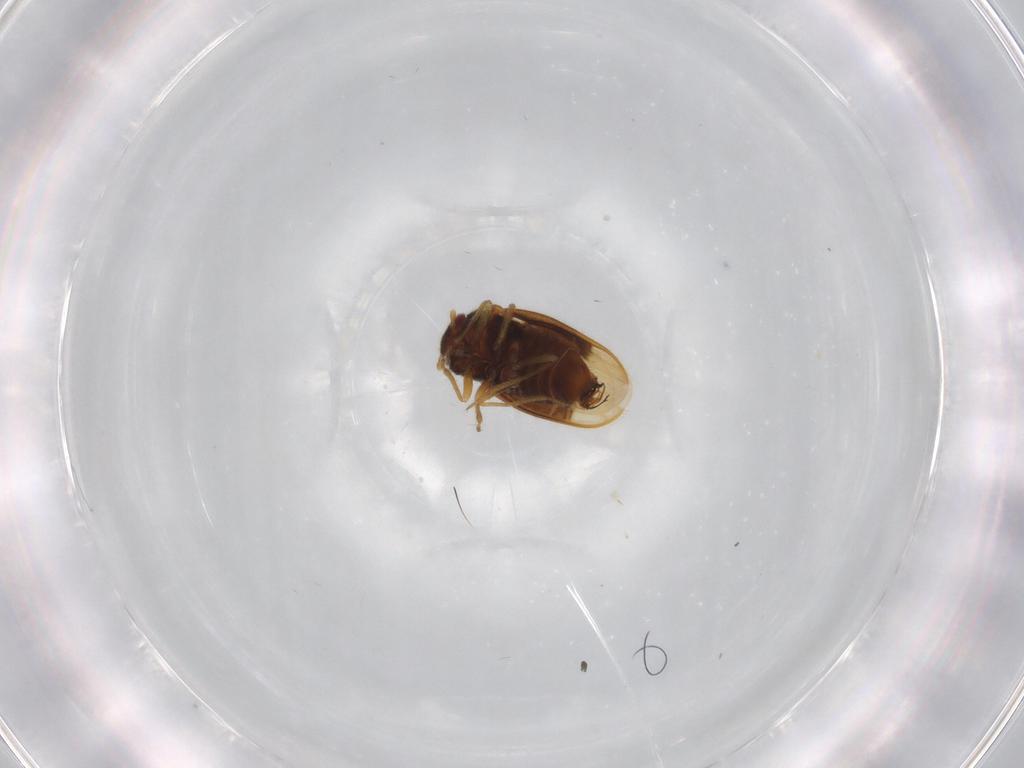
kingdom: Animalia
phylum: Arthropoda
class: Insecta
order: Hemiptera
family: Schizopteridae
